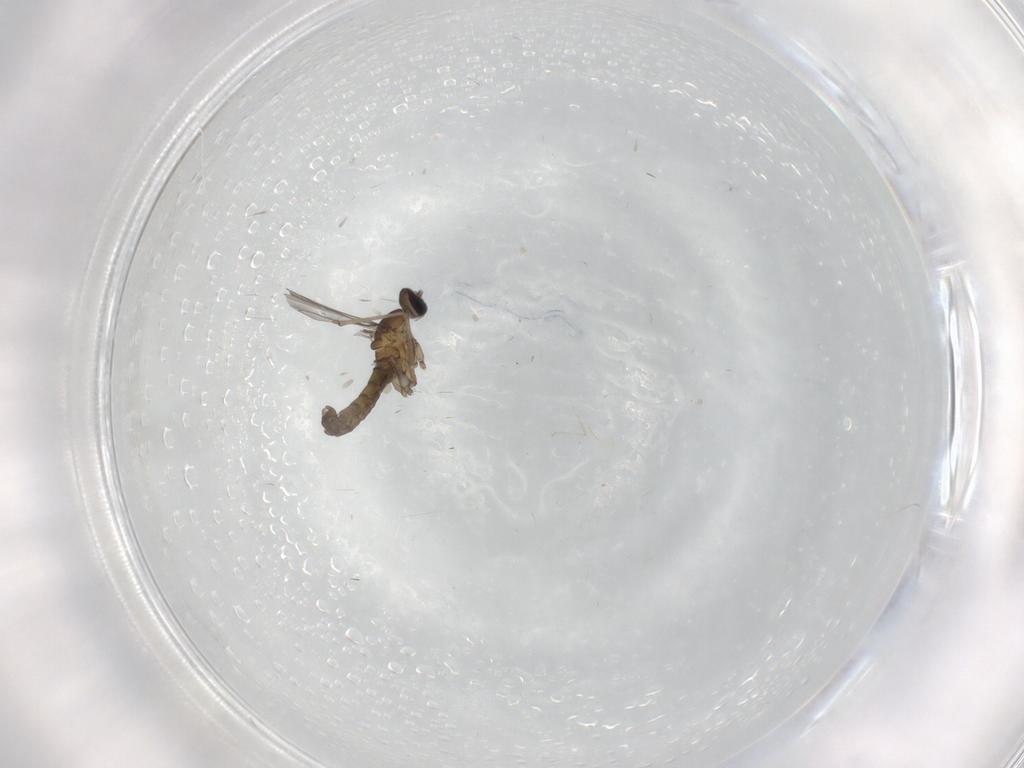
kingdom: Animalia
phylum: Arthropoda
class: Insecta
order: Diptera
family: Cecidomyiidae
